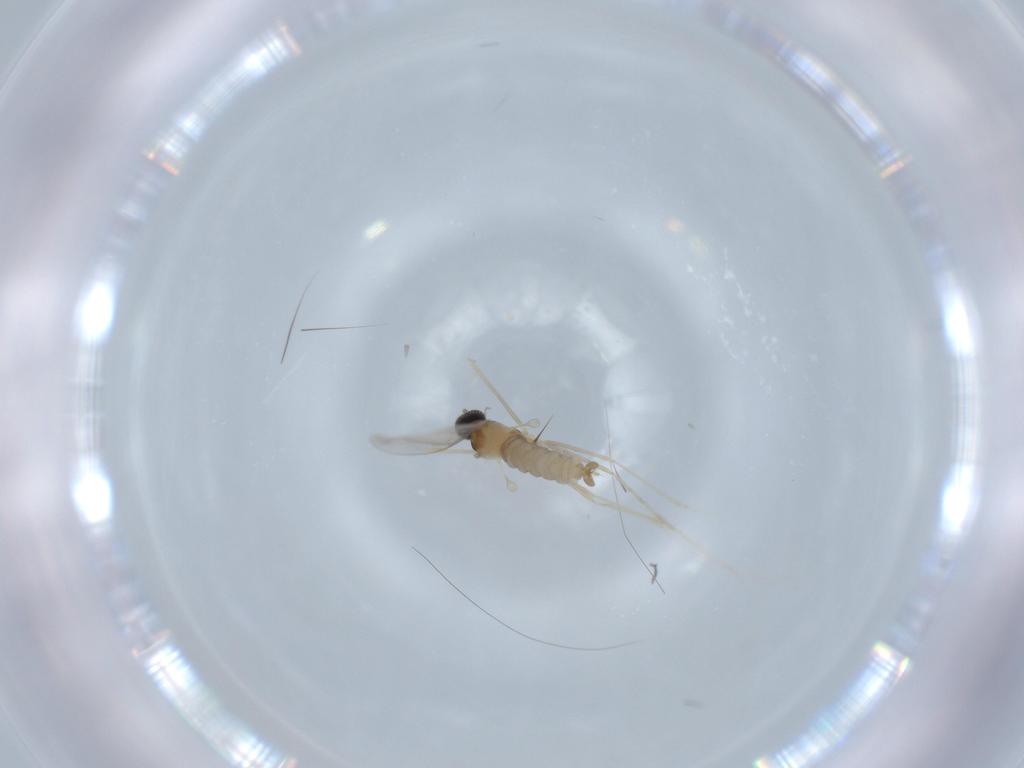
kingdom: Animalia
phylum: Arthropoda
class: Insecta
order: Diptera
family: Cecidomyiidae
